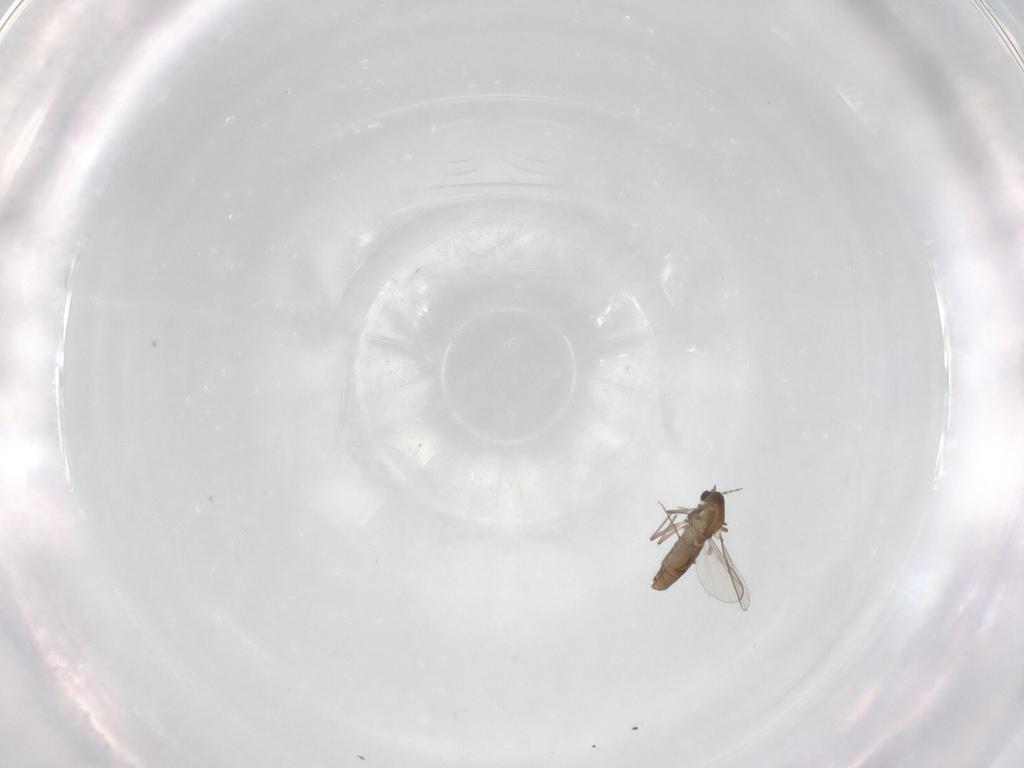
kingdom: Animalia
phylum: Arthropoda
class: Insecta
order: Diptera
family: Chironomidae
